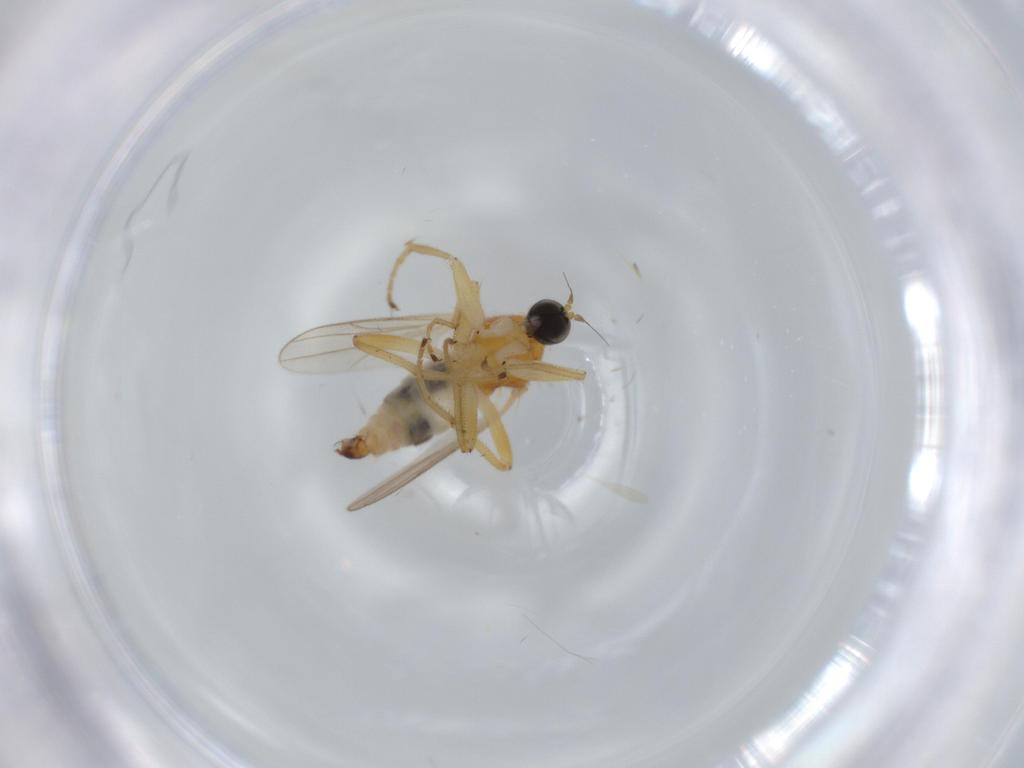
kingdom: Animalia
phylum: Arthropoda
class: Insecta
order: Diptera
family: Hybotidae
